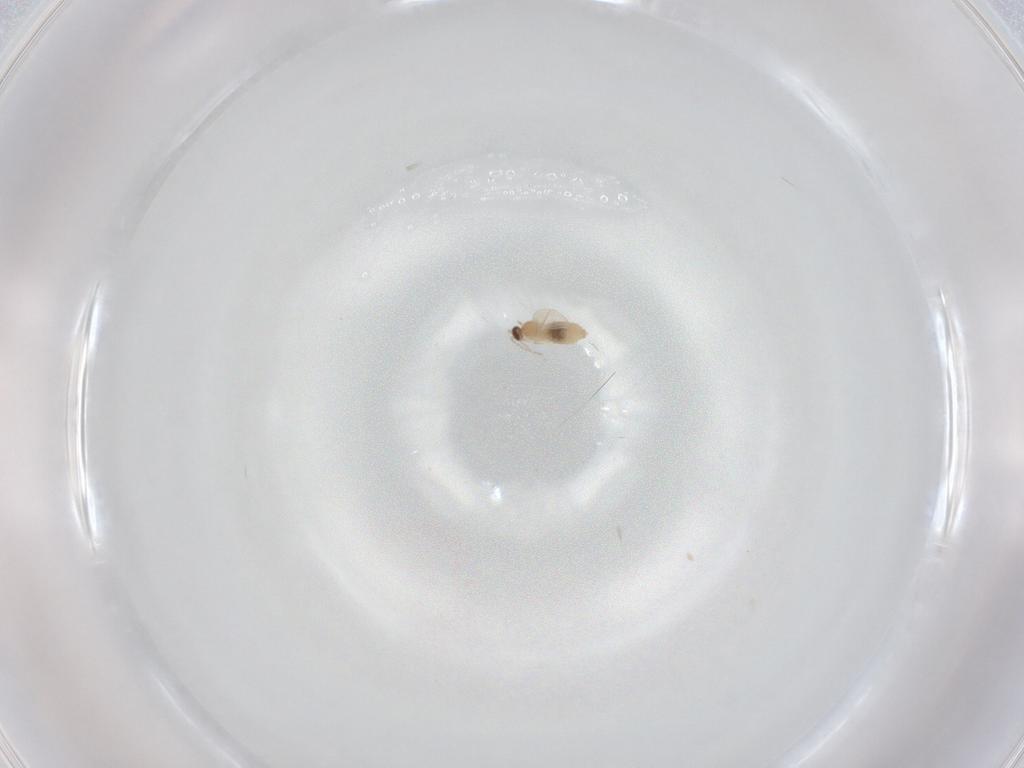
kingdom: Animalia
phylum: Arthropoda
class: Insecta
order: Diptera
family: Cecidomyiidae
